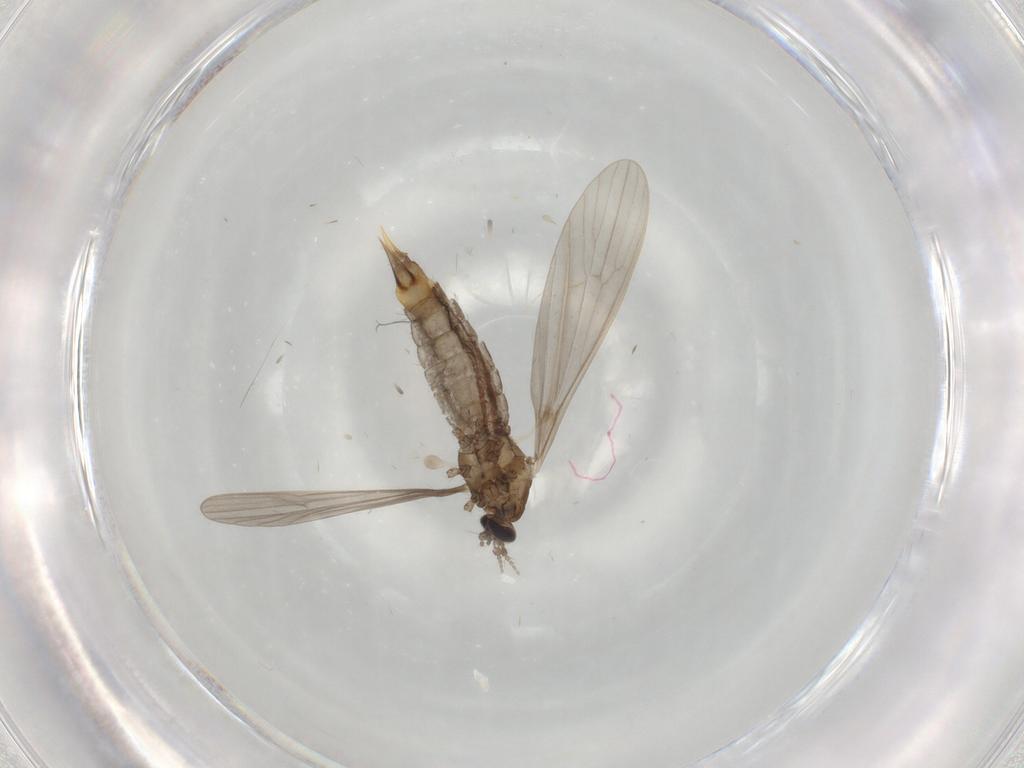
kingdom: Animalia
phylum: Arthropoda
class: Insecta
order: Diptera
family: Limoniidae
